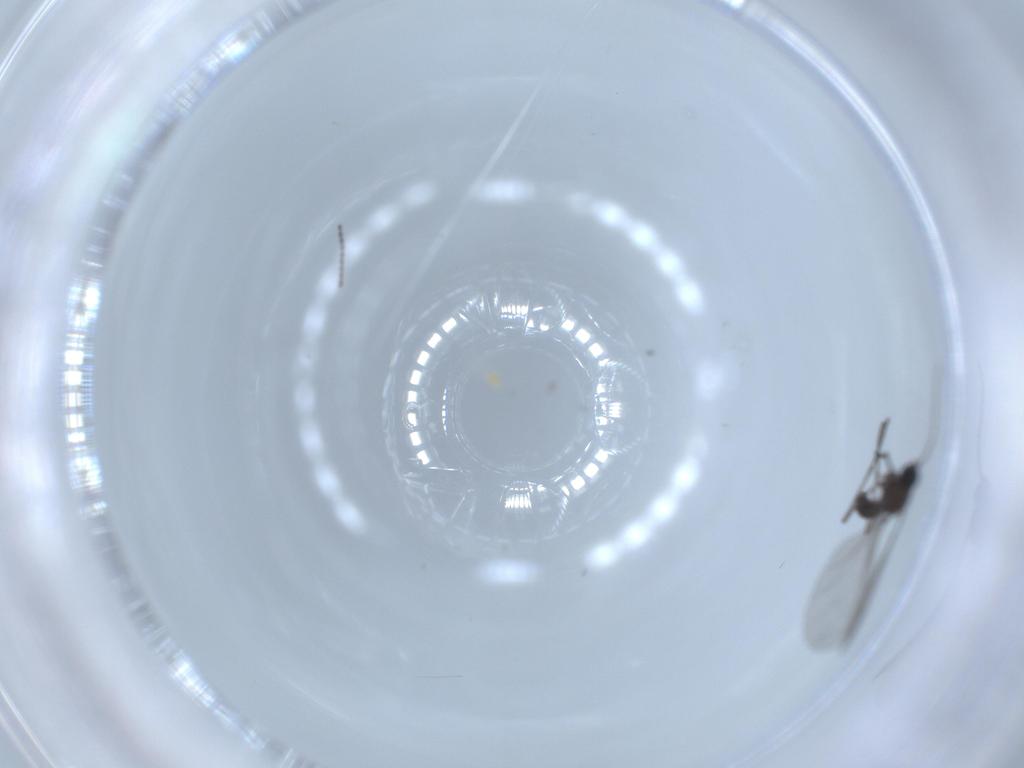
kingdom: Animalia
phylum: Arthropoda
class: Insecta
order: Diptera
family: Sciaridae
